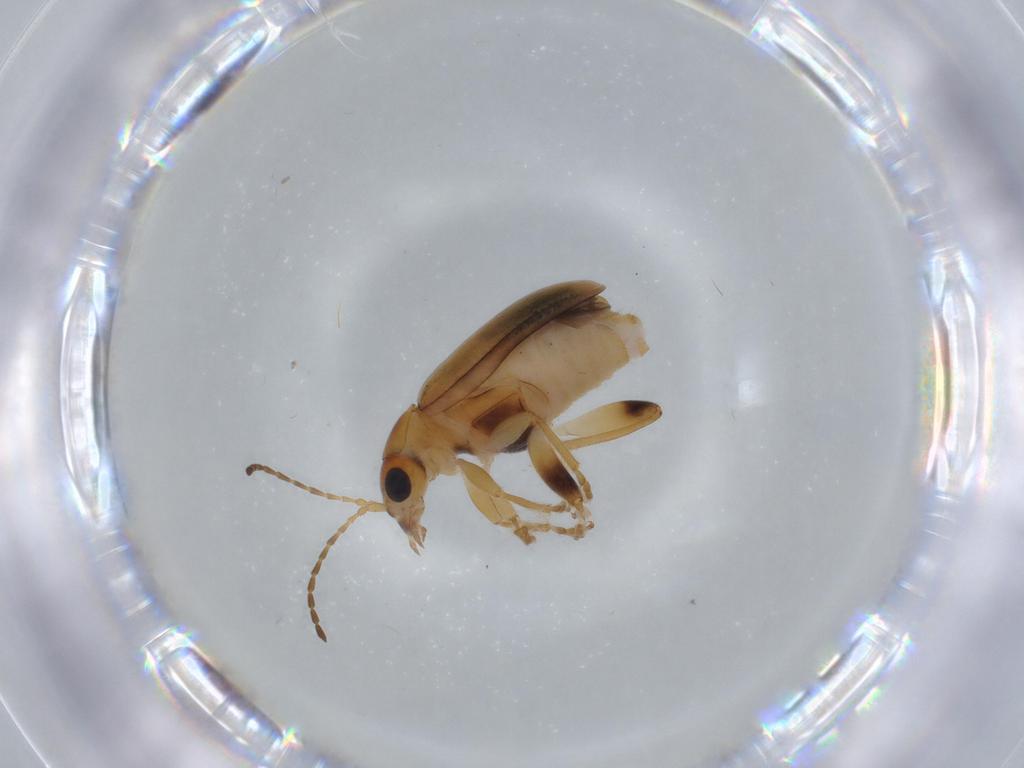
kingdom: Animalia
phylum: Arthropoda
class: Insecta
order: Coleoptera
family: Chrysomelidae
